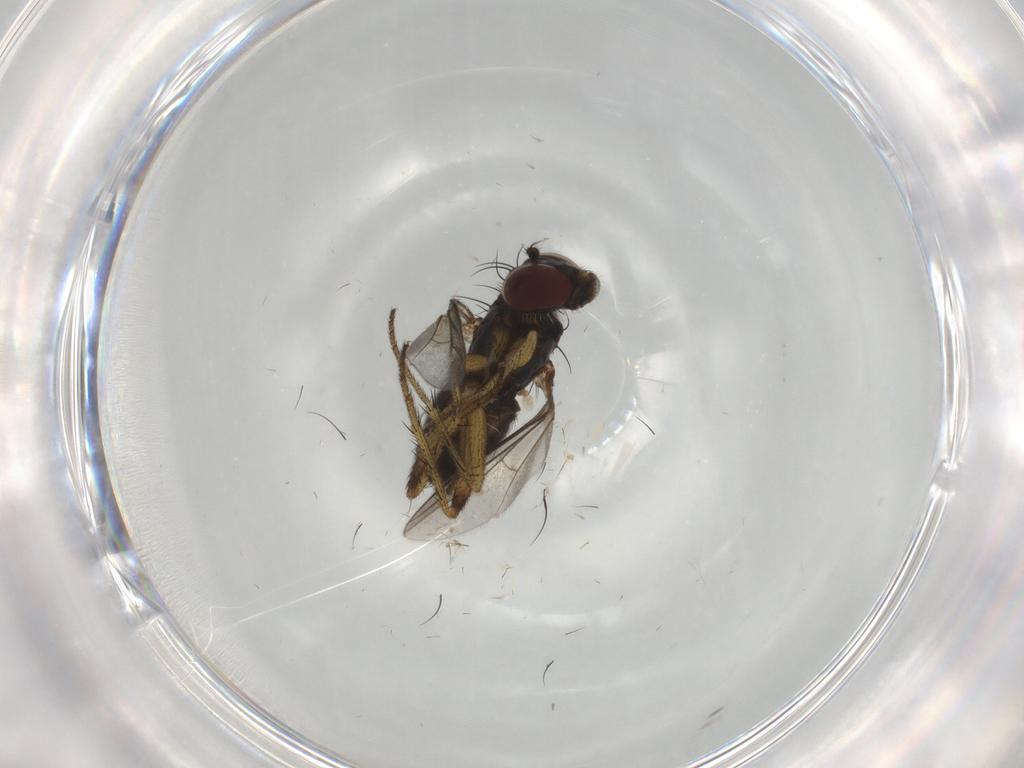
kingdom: Animalia
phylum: Arthropoda
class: Insecta
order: Diptera
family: Dolichopodidae
